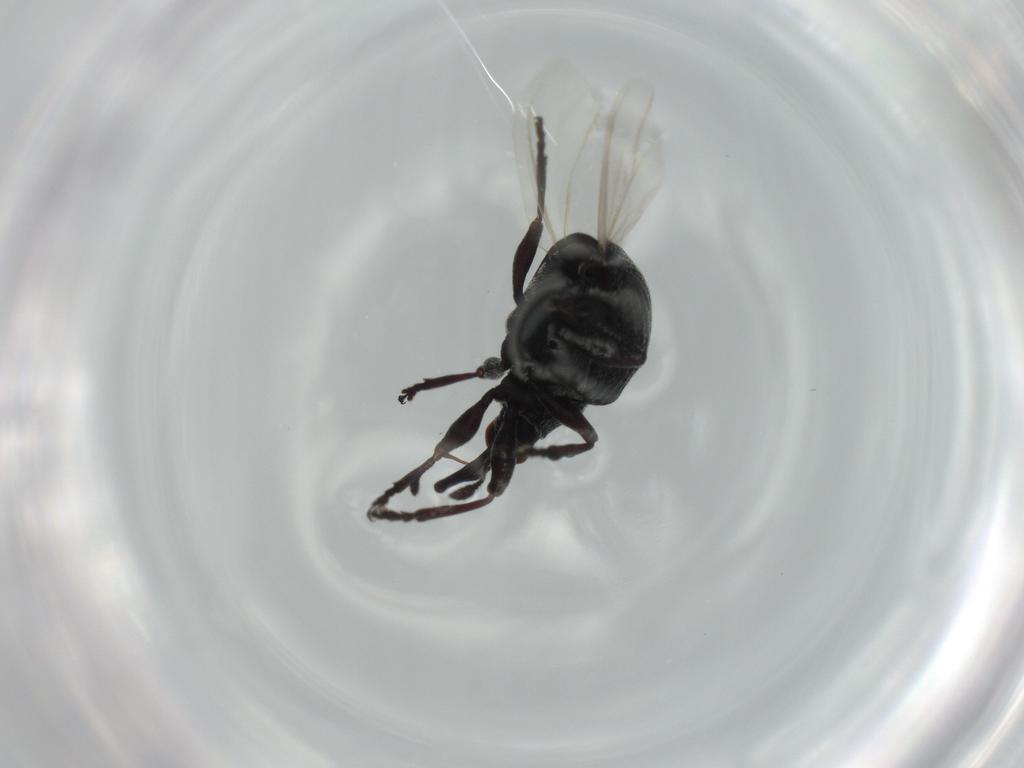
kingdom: Animalia
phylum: Arthropoda
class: Insecta
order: Coleoptera
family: Brentidae
